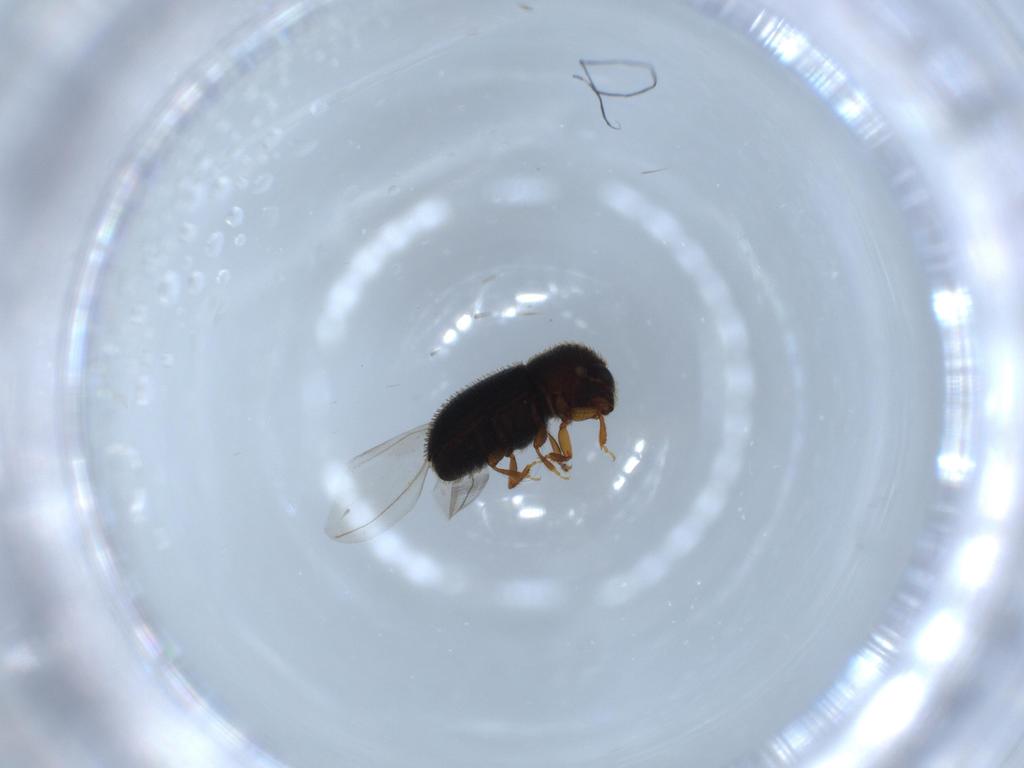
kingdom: Animalia
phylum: Arthropoda
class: Insecta
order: Coleoptera
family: Curculionidae
